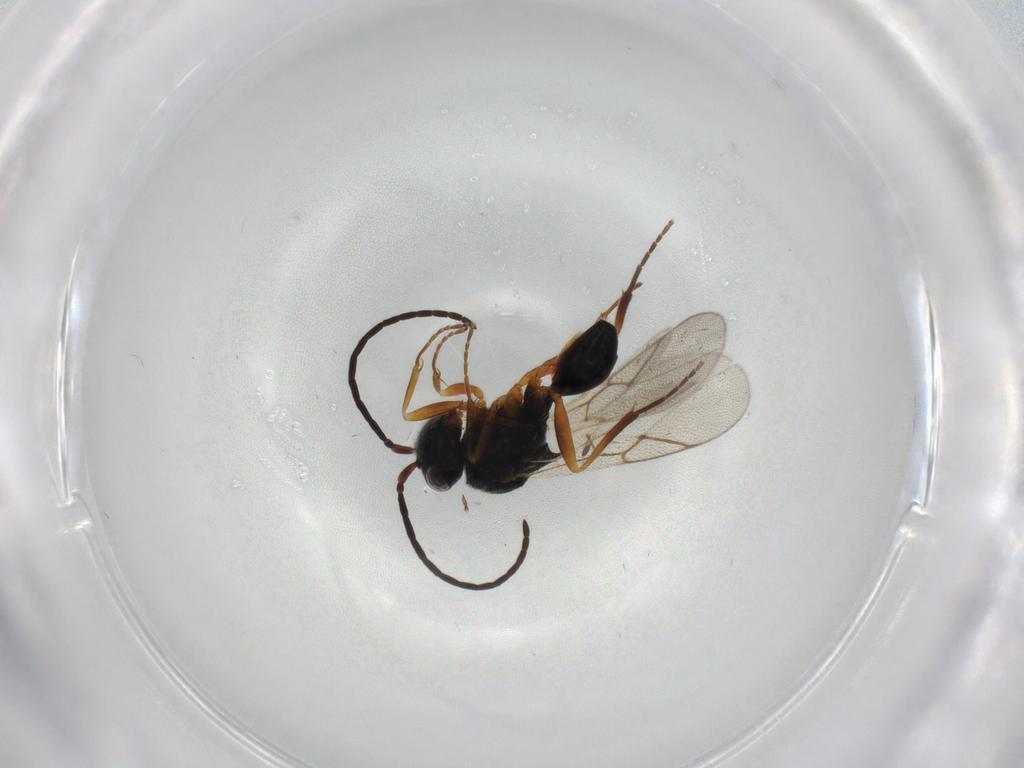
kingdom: Animalia
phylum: Arthropoda
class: Insecta
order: Hymenoptera
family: Figitidae
